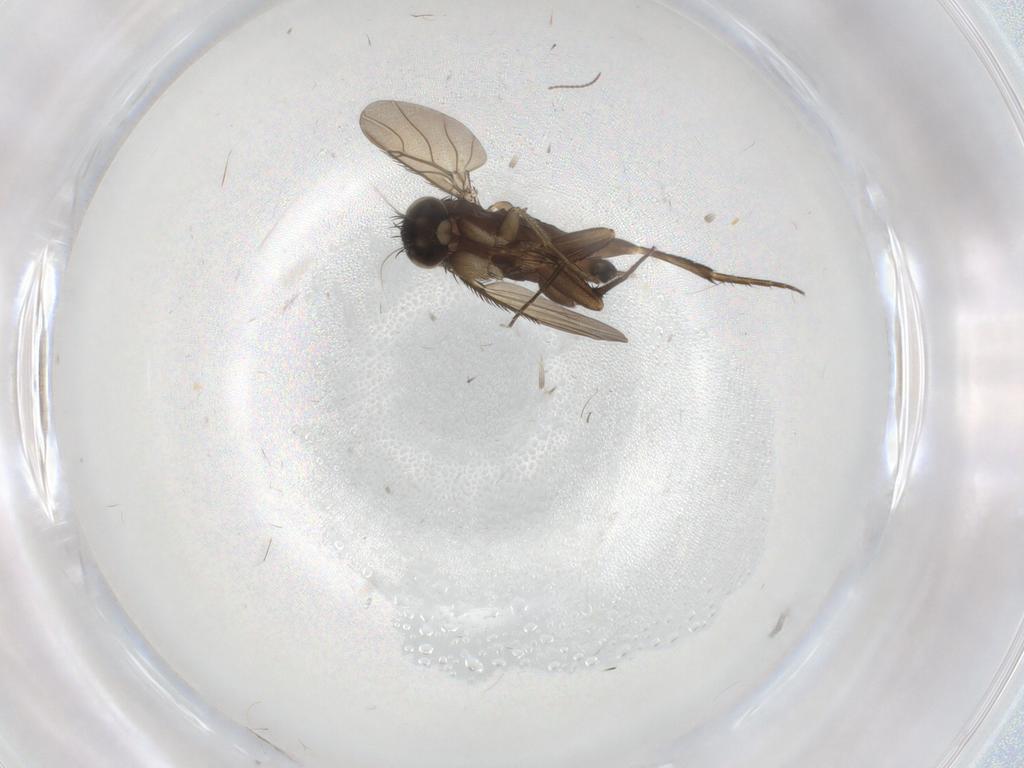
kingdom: Animalia
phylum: Arthropoda
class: Insecta
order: Diptera
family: Phoridae
